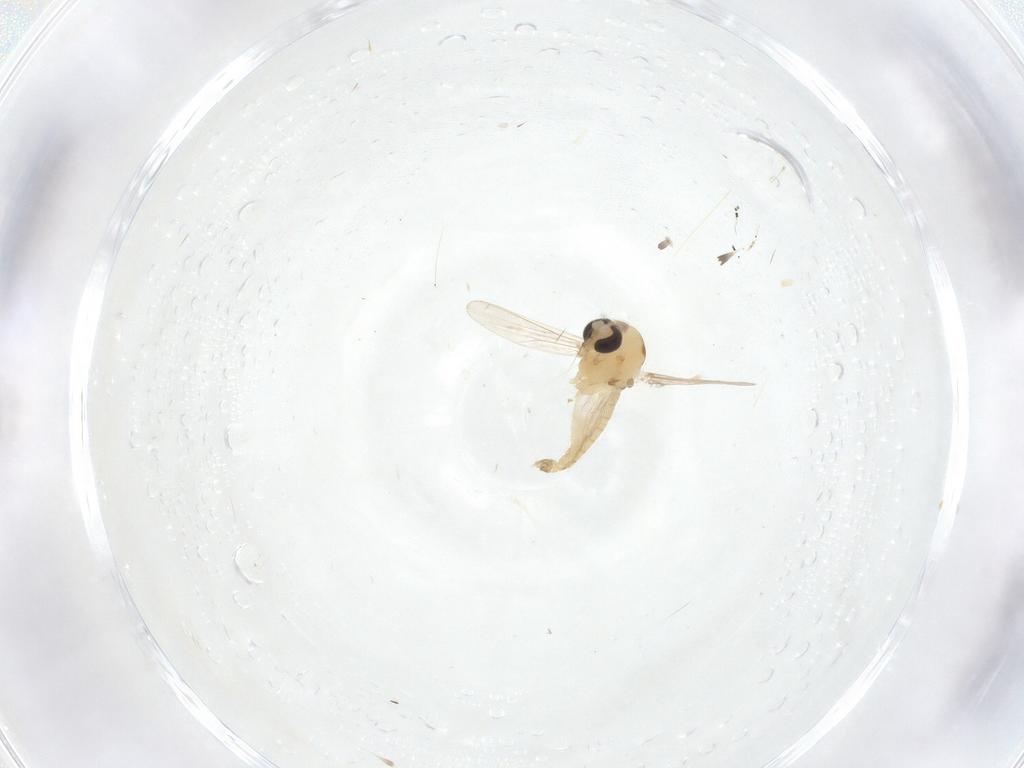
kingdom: Animalia
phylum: Arthropoda
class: Insecta
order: Diptera
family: Chironomidae
